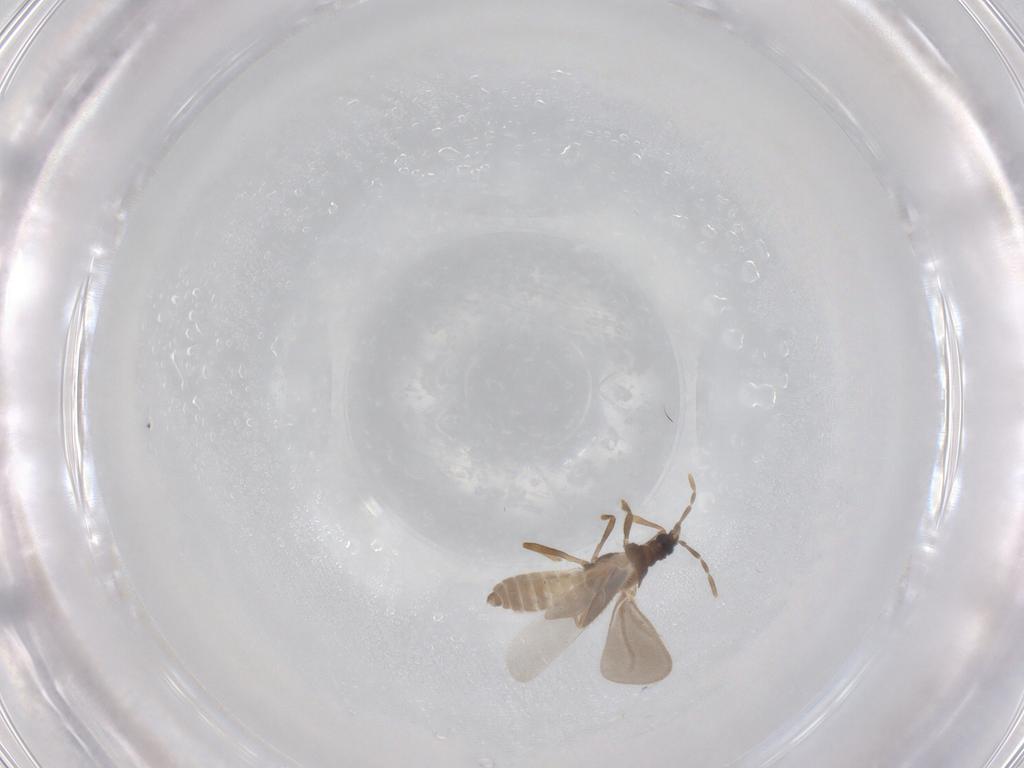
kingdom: Animalia
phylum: Arthropoda
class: Insecta
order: Hemiptera
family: Enicocephalidae
